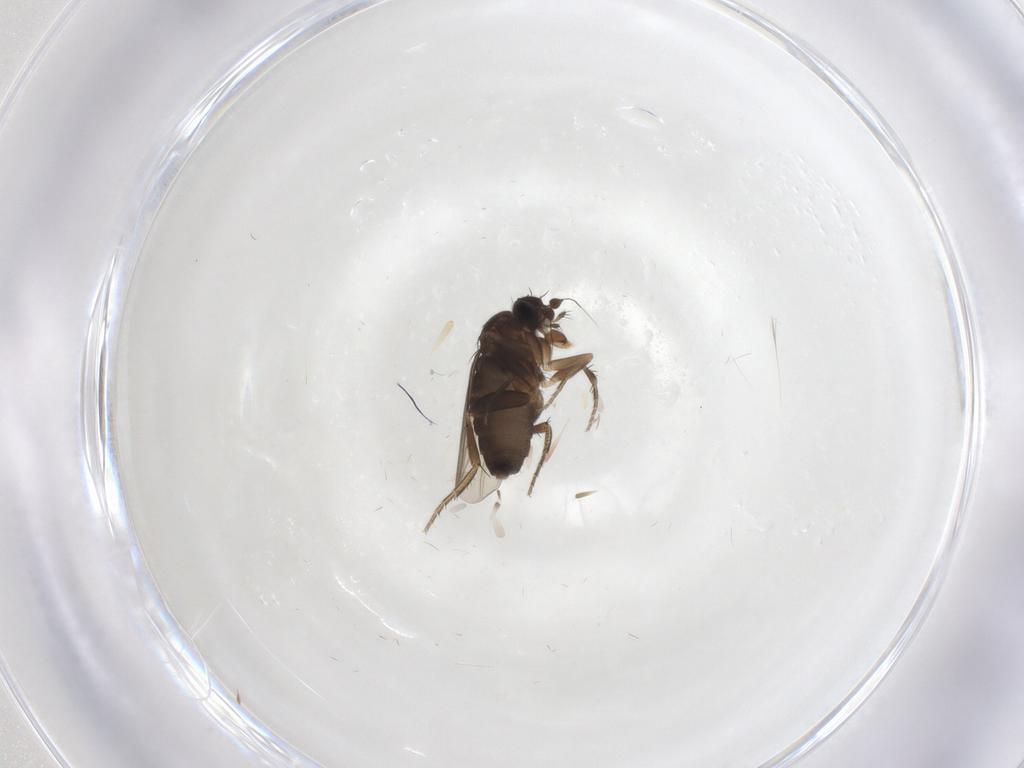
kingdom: Animalia
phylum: Arthropoda
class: Insecta
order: Diptera
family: Phoridae
